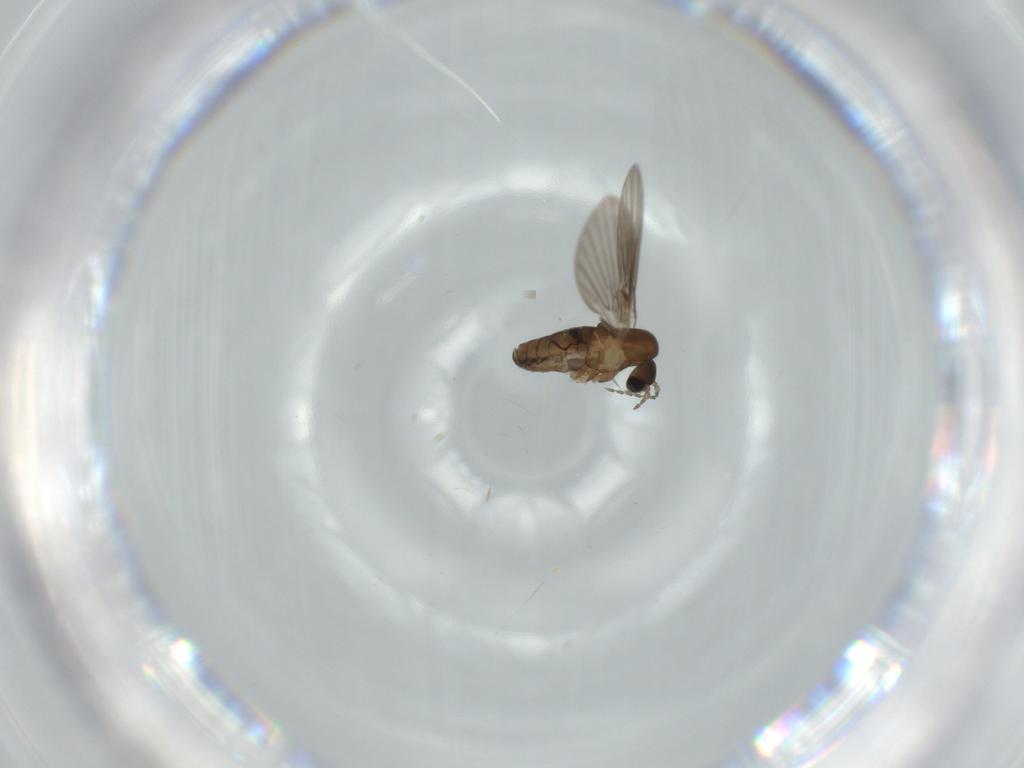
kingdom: Animalia
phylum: Arthropoda
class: Insecta
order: Diptera
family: Psychodidae
